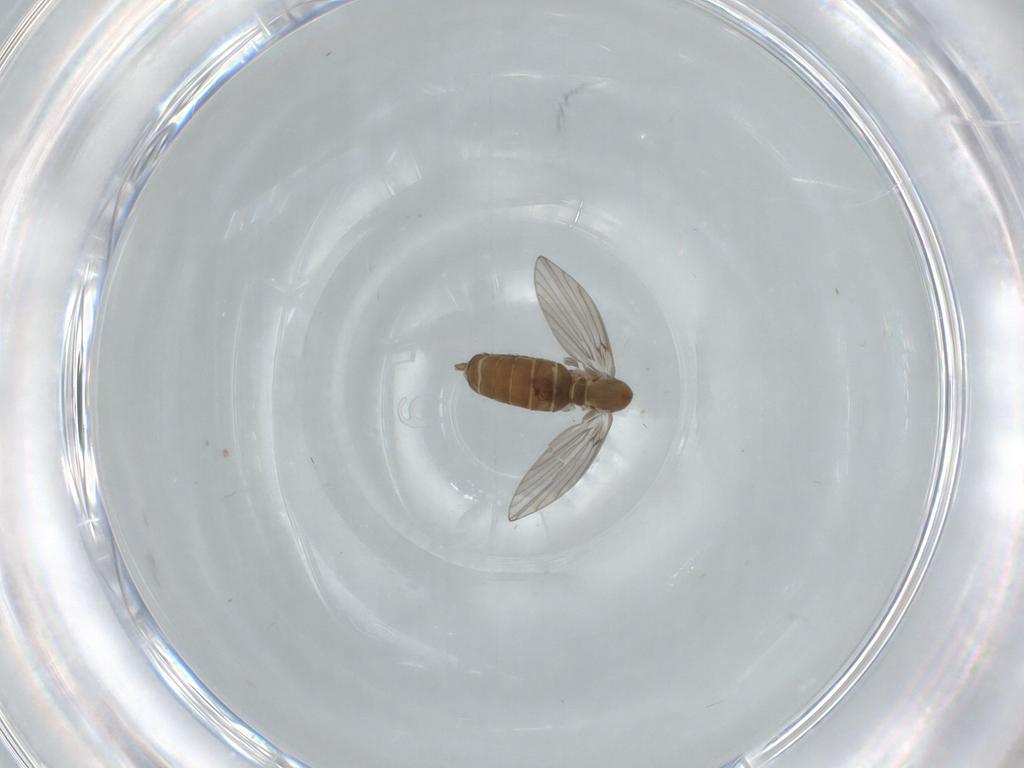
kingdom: Animalia
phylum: Arthropoda
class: Insecta
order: Diptera
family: Psychodidae
